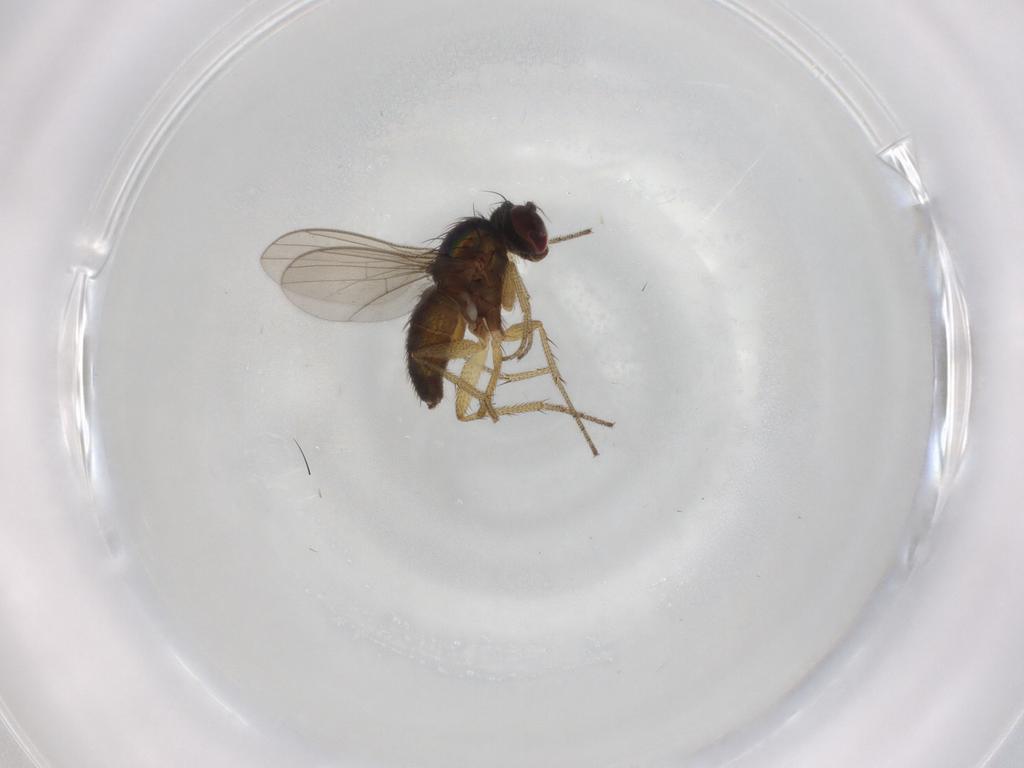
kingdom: Animalia
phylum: Arthropoda
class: Insecta
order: Diptera
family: Dolichopodidae
